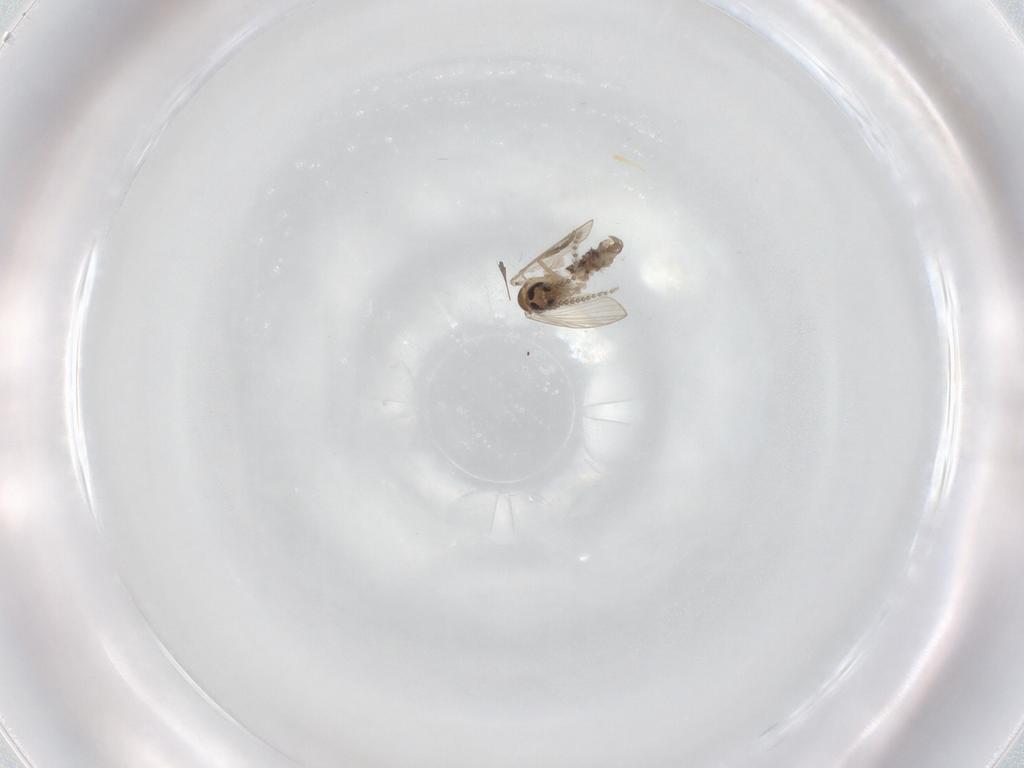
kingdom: Animalia
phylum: Arthropoda
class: Insecta
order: Diptera
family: Psychodidae
